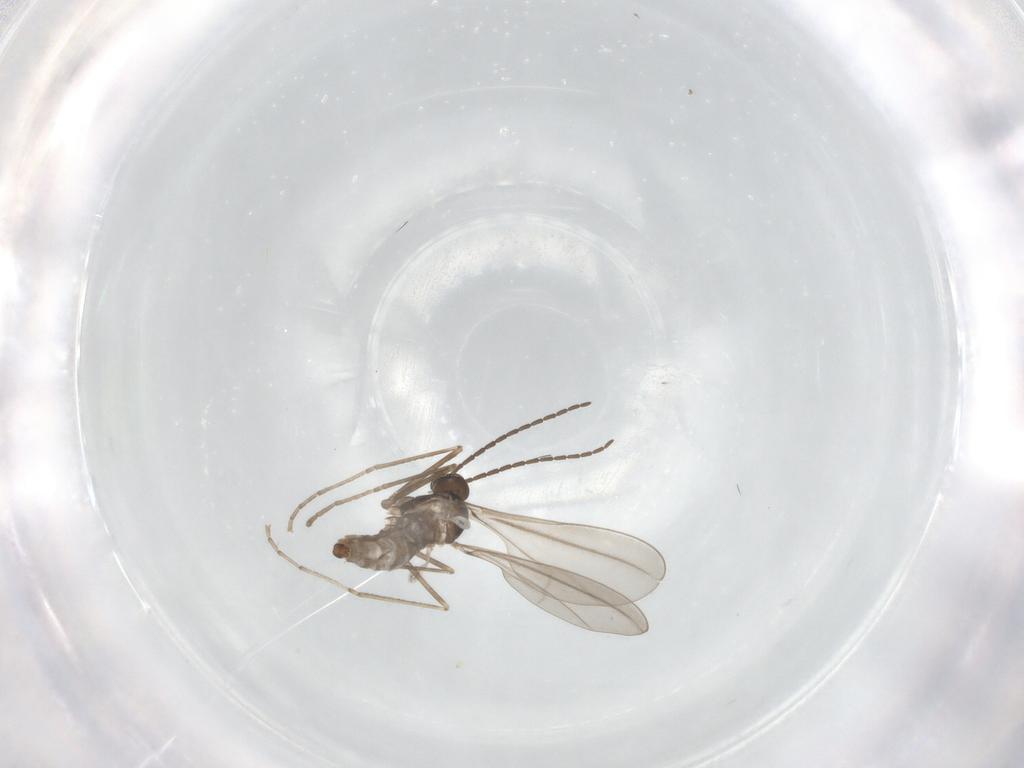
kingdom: Animalia
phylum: Arthropoda
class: Insecta
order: Diptera
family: Cecidomyiidae
